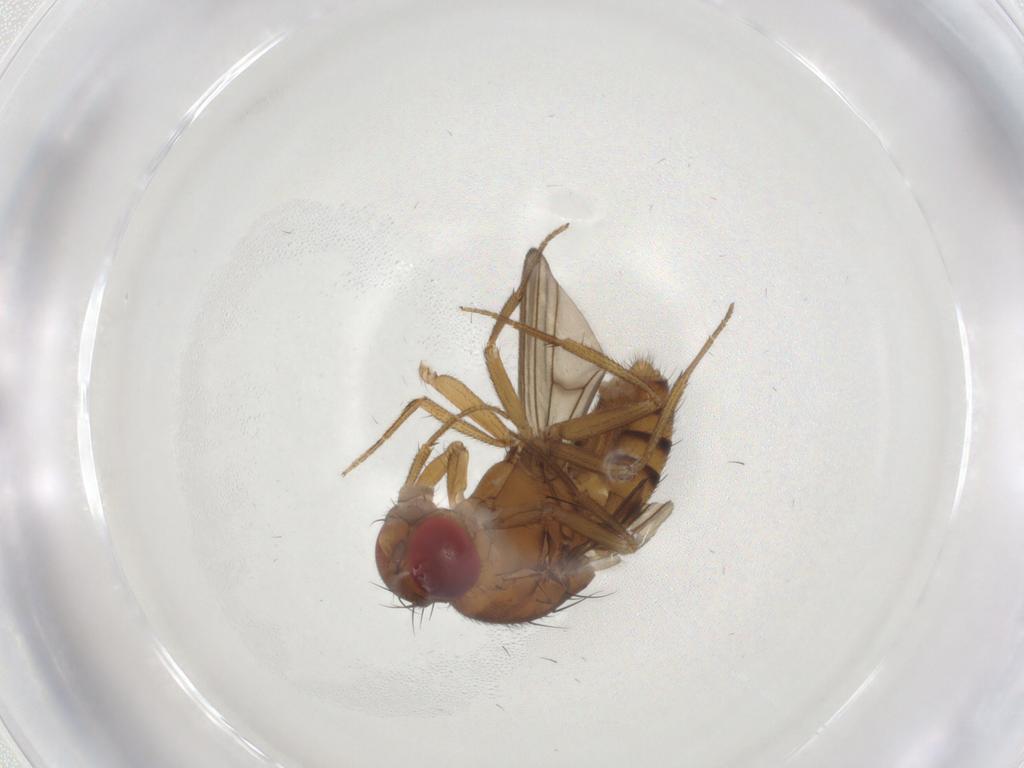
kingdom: Animalia
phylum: Arthropoda
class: Insecta
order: Diptera
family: Drosophilidae
